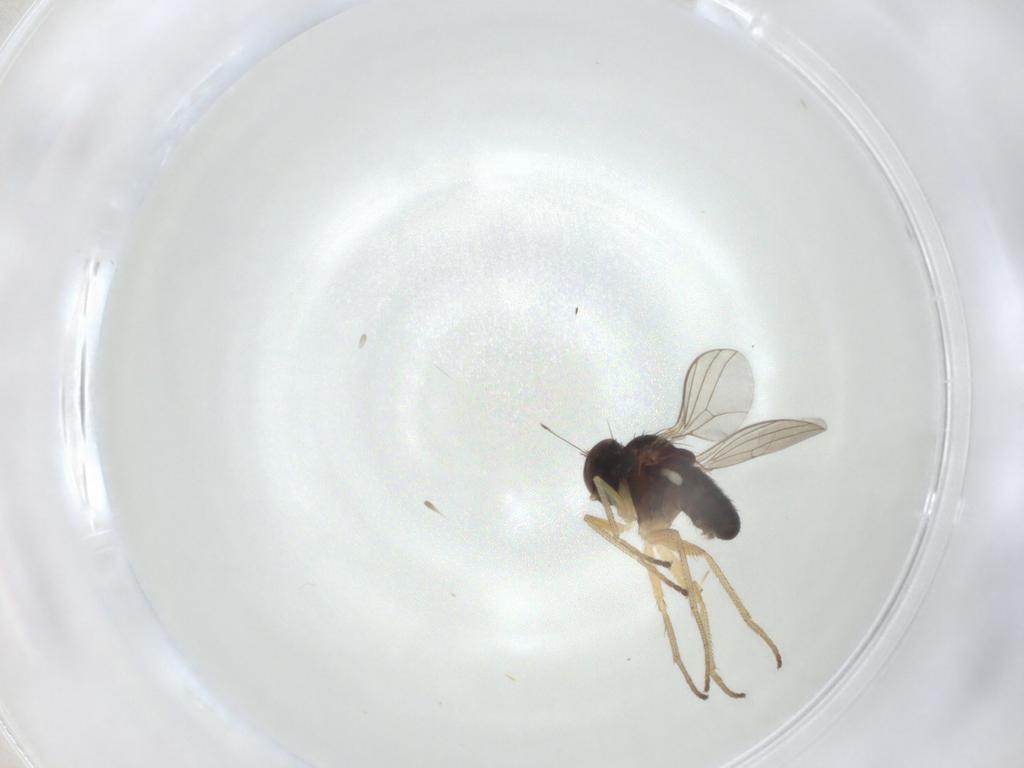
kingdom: Animalia
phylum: Arthropoda
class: Insecta
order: Diptera
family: Dolichopodidae
